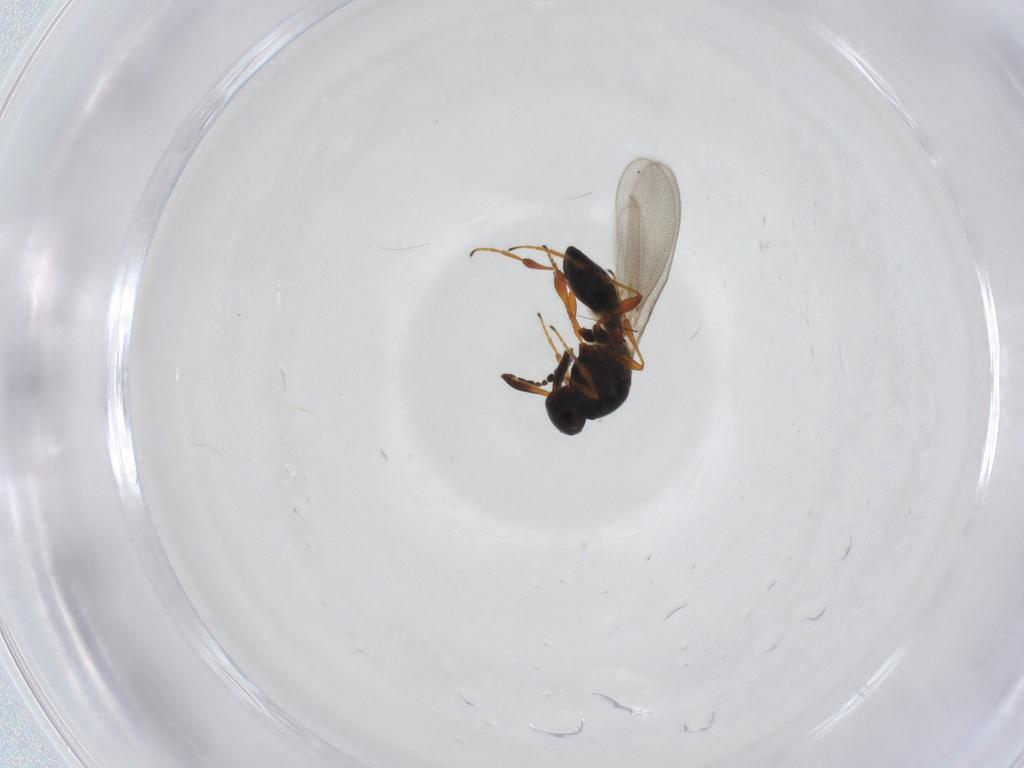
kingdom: Animalia
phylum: Arthropoda
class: Insecta
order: Hymenoptera
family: Platygastridae
